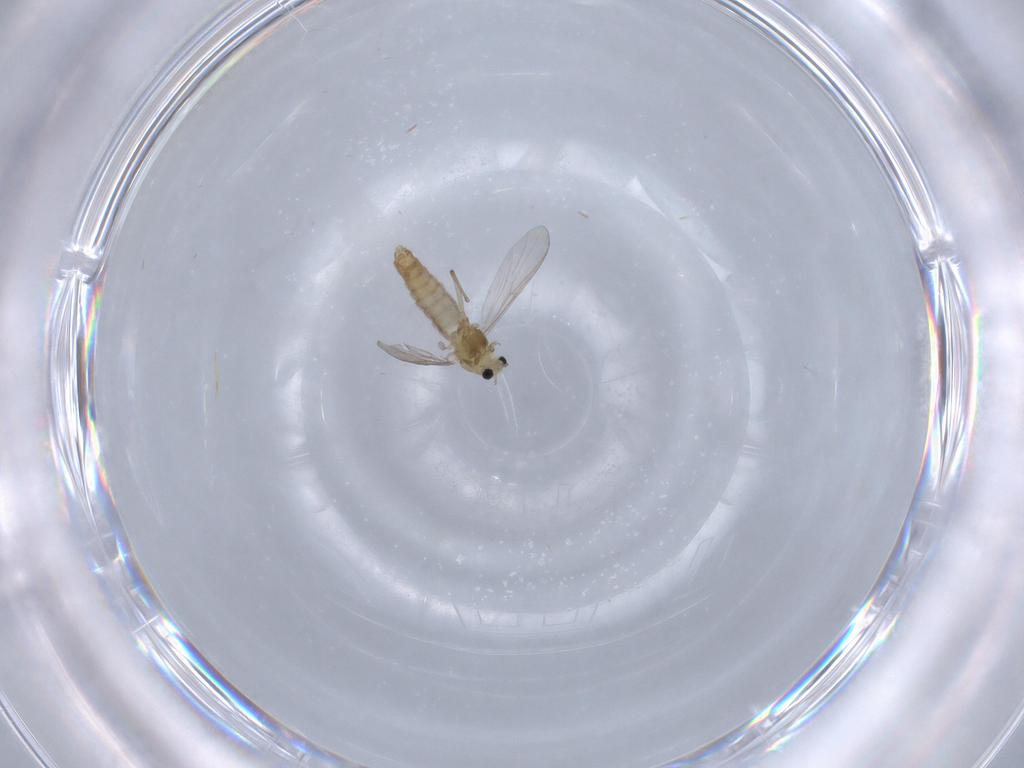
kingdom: Animalia
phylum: Arthropoda
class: Insecta
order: Diptera
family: Chironomidae
